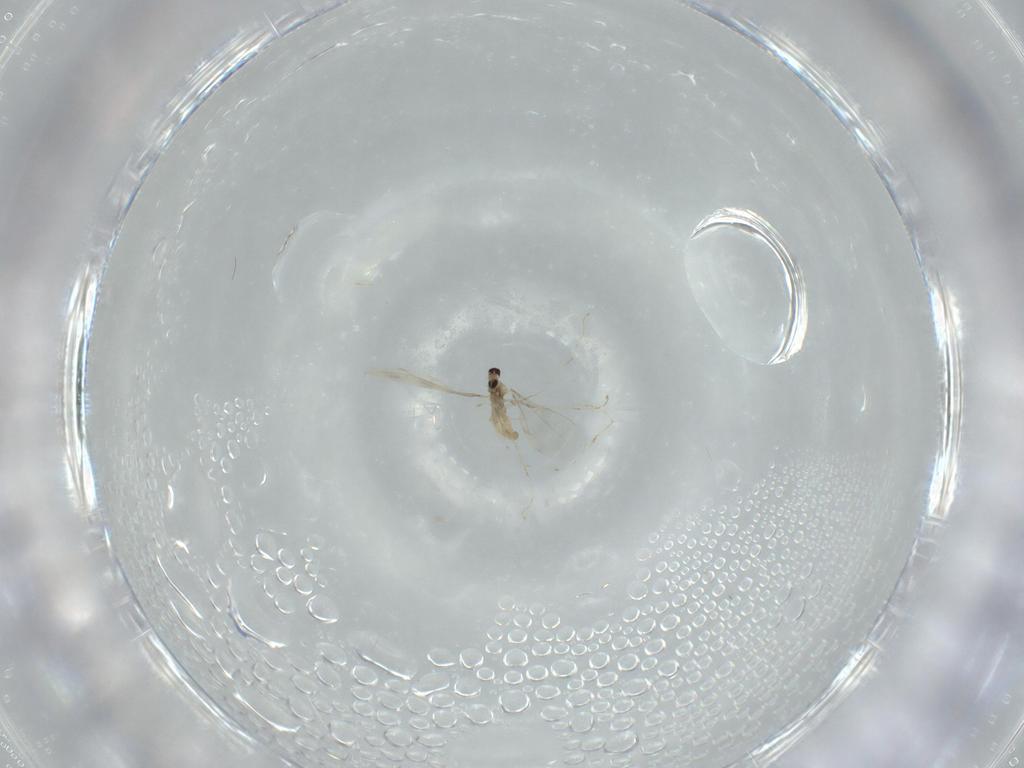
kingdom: Animalia
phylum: Arthropoda
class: Insecta
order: Diptera
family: Cecidomyiidae
